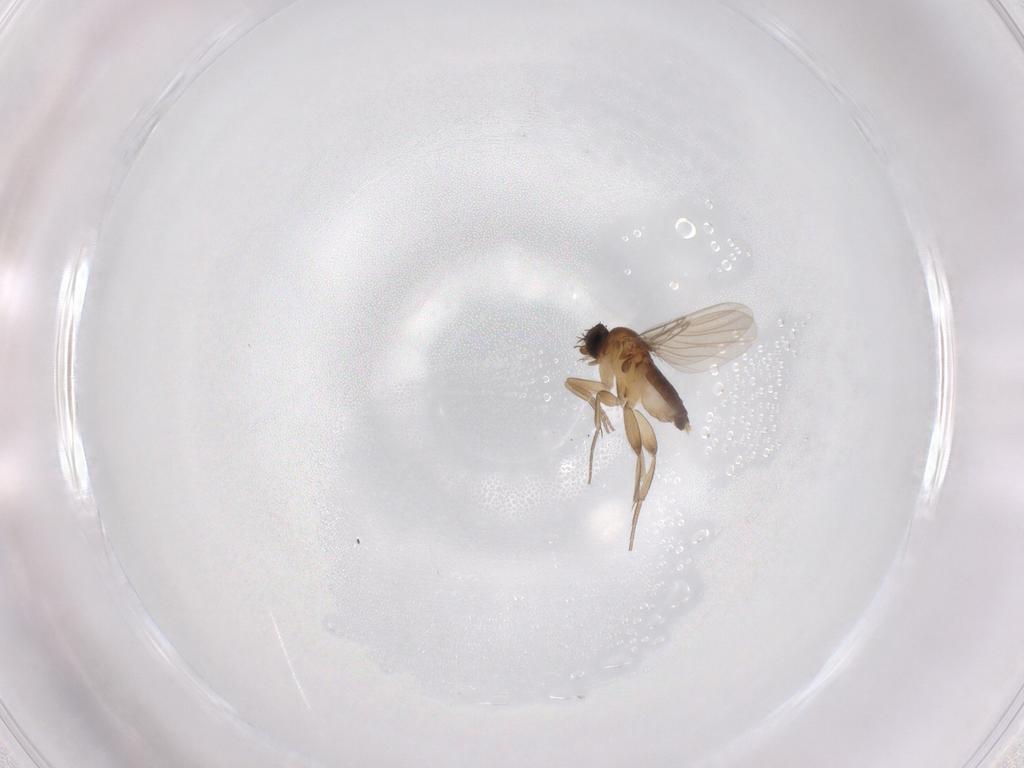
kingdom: Animalia
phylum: Arthropoda
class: Insecta
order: Diptera
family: Phoridae
